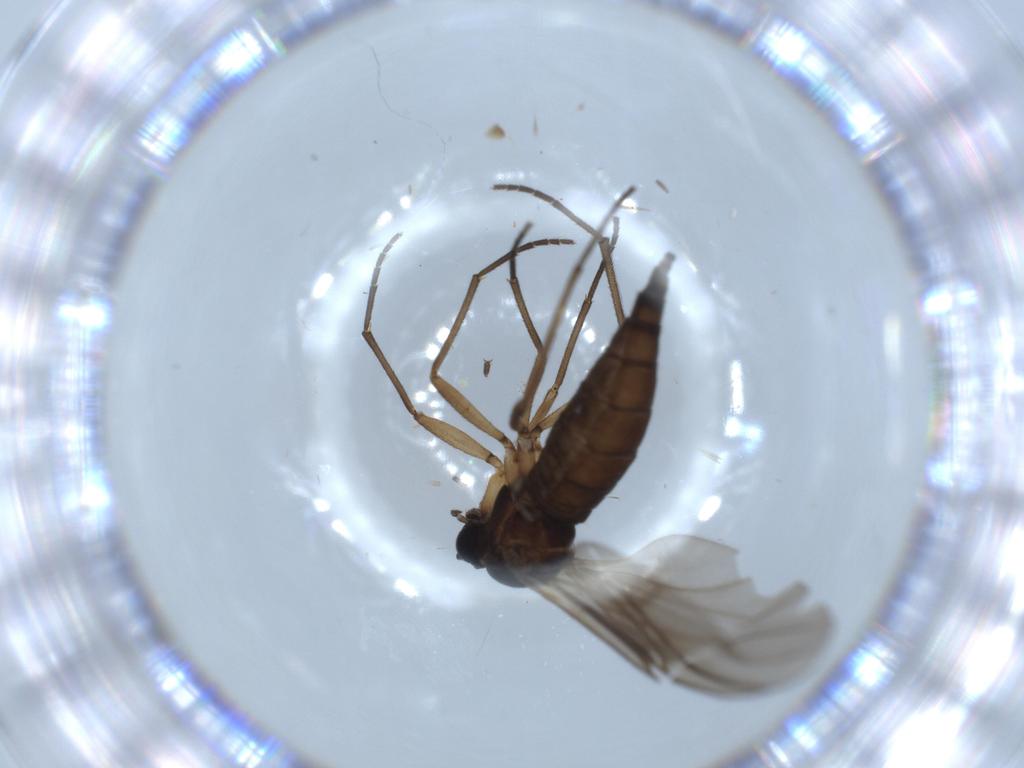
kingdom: Animalia
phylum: Arthropoda
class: Insecta
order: Diptera
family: Sciaridae
